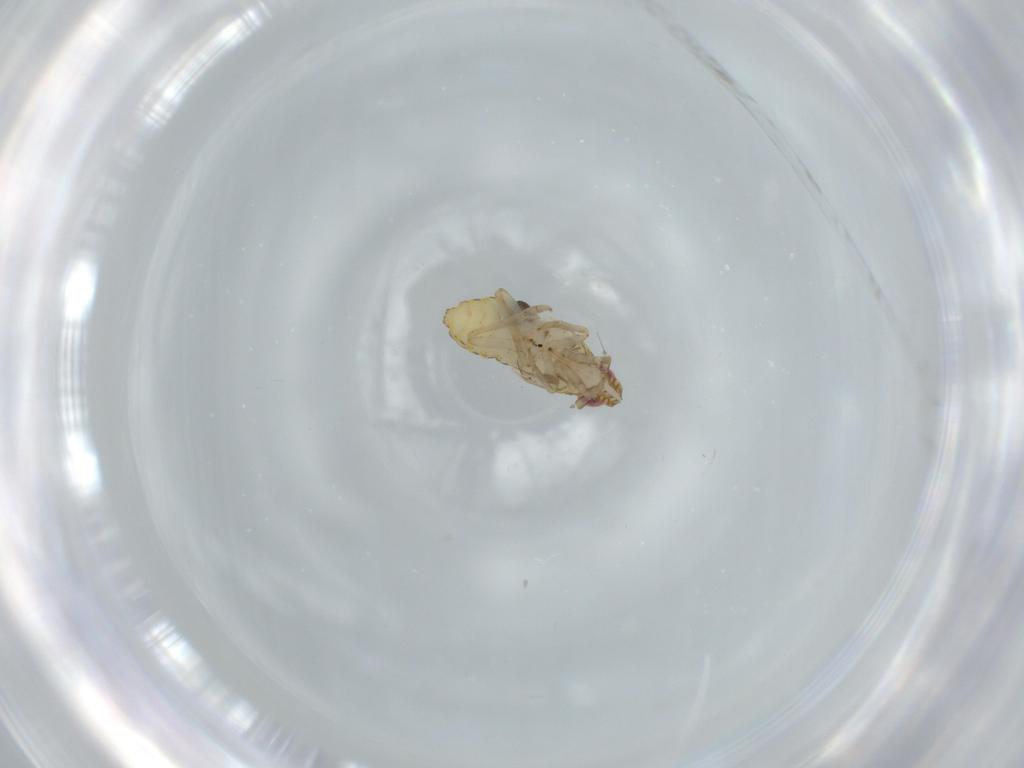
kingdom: Animalia
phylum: Arthropoda
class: Insecta
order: Hemiptera
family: Delphacidae
